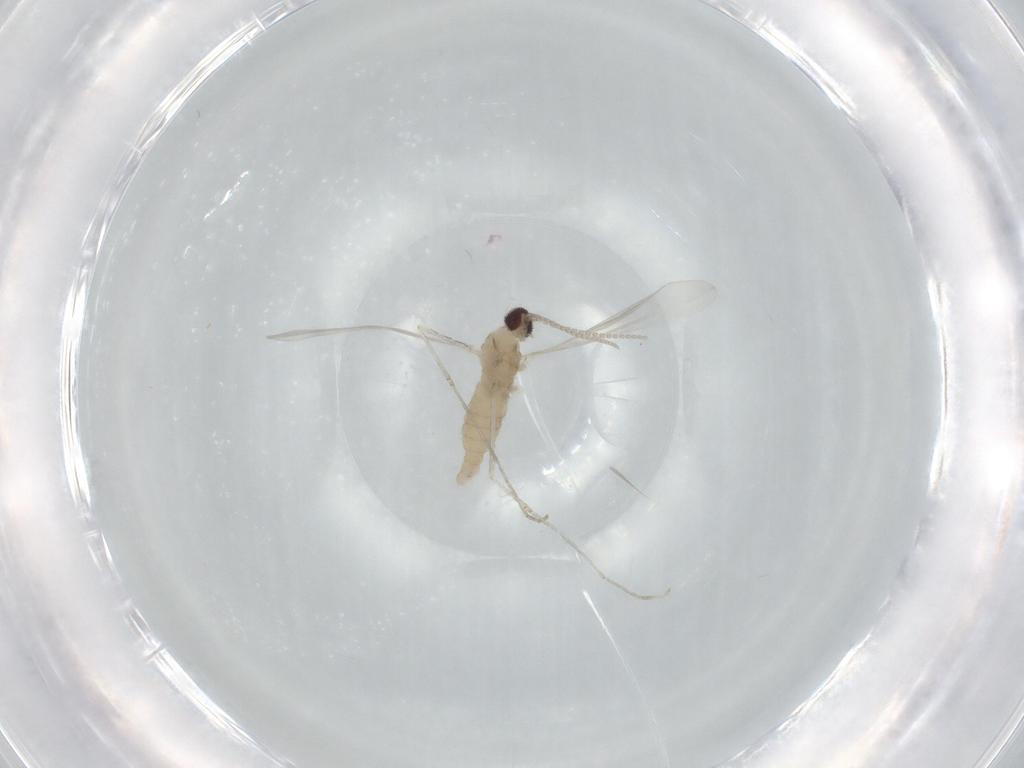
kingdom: Animalia
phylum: Arthropoda
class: Insecta
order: Diptera
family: Cecidomyiidae
